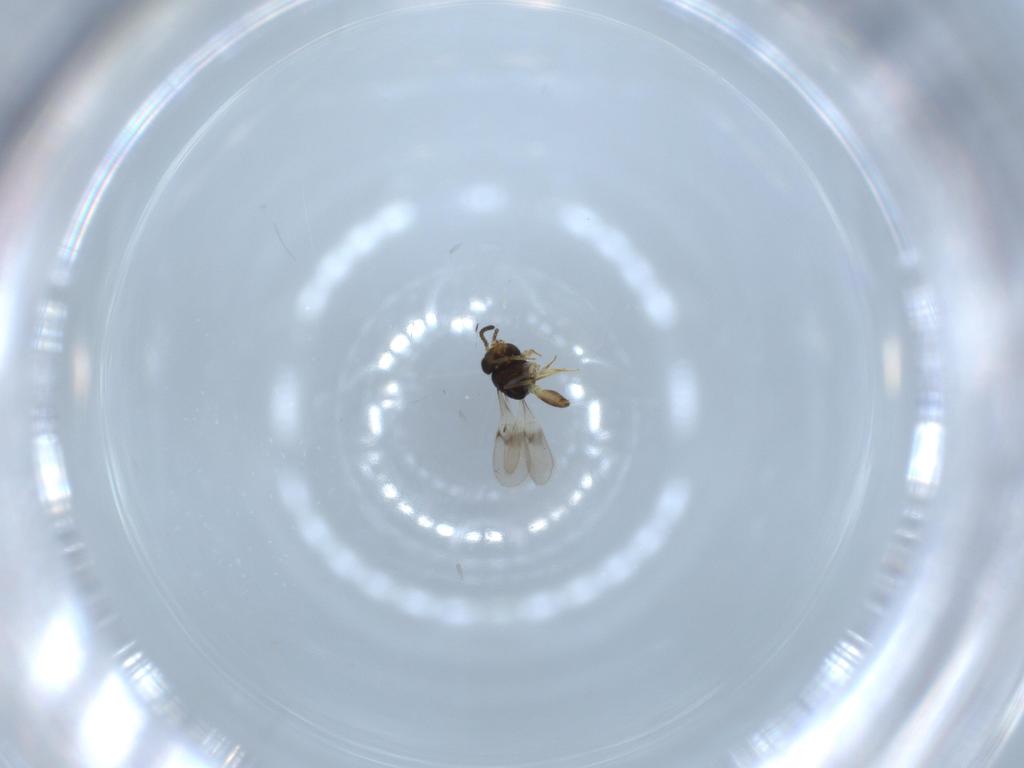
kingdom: Animalia
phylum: Arthropoda
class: Insecta
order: Hymenoptera
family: Scelionidae
